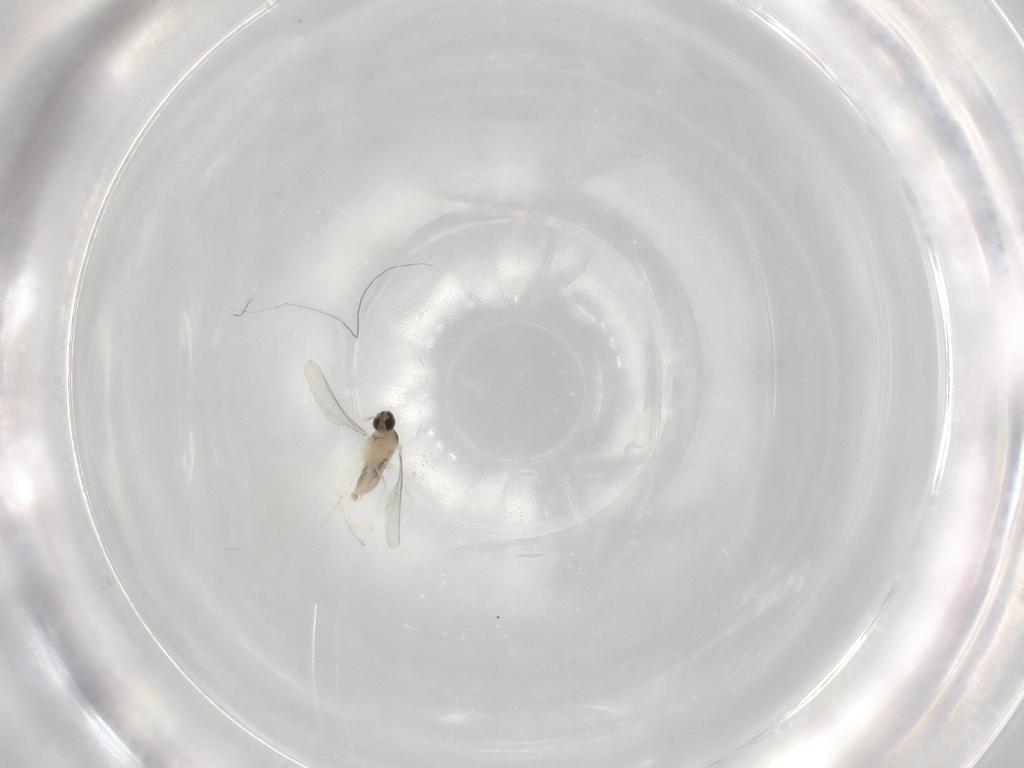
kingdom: Animalia
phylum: Arthropoda
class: Insecta
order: Diptera
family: Cecidomyiidae
